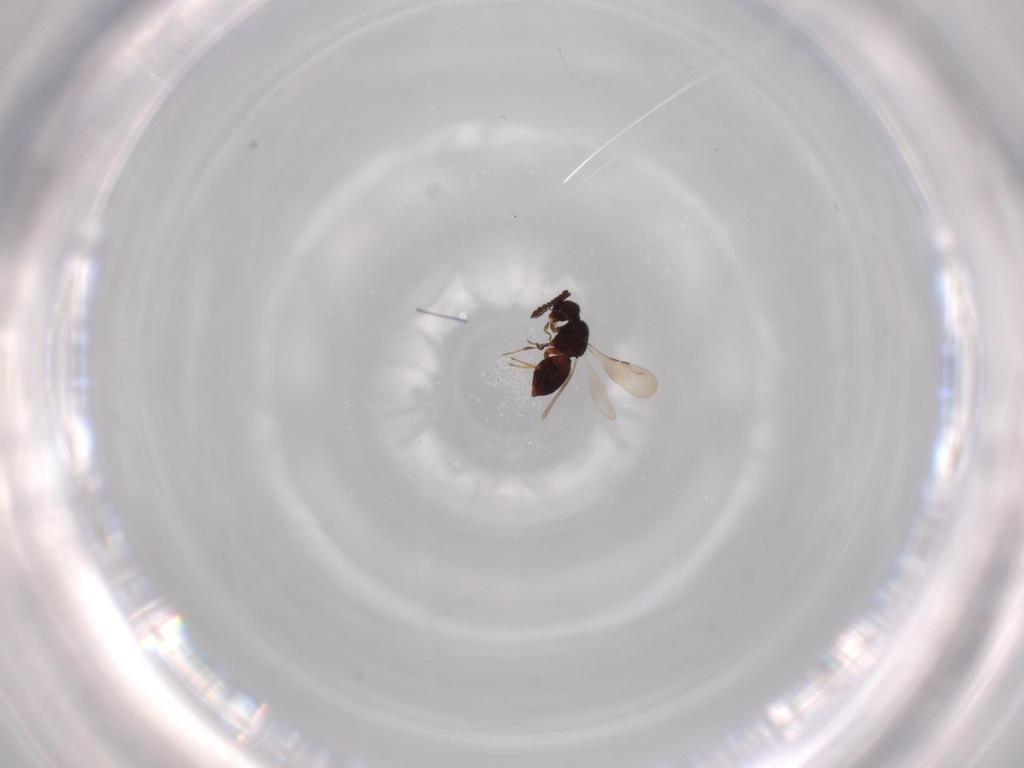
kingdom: Animalia
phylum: Arthropoda
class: Insecta
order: Hymenoptera
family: Ceraphronidae
